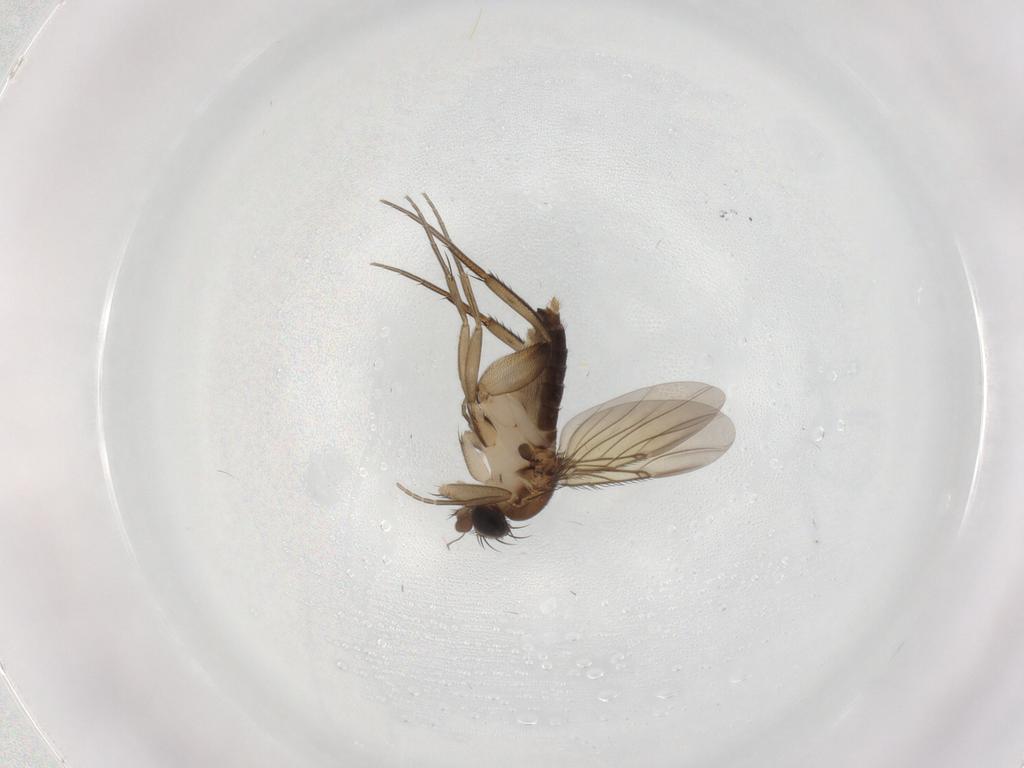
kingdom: Animalia
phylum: Arthropoda
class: Insecta
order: Diptera
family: Phoridae
